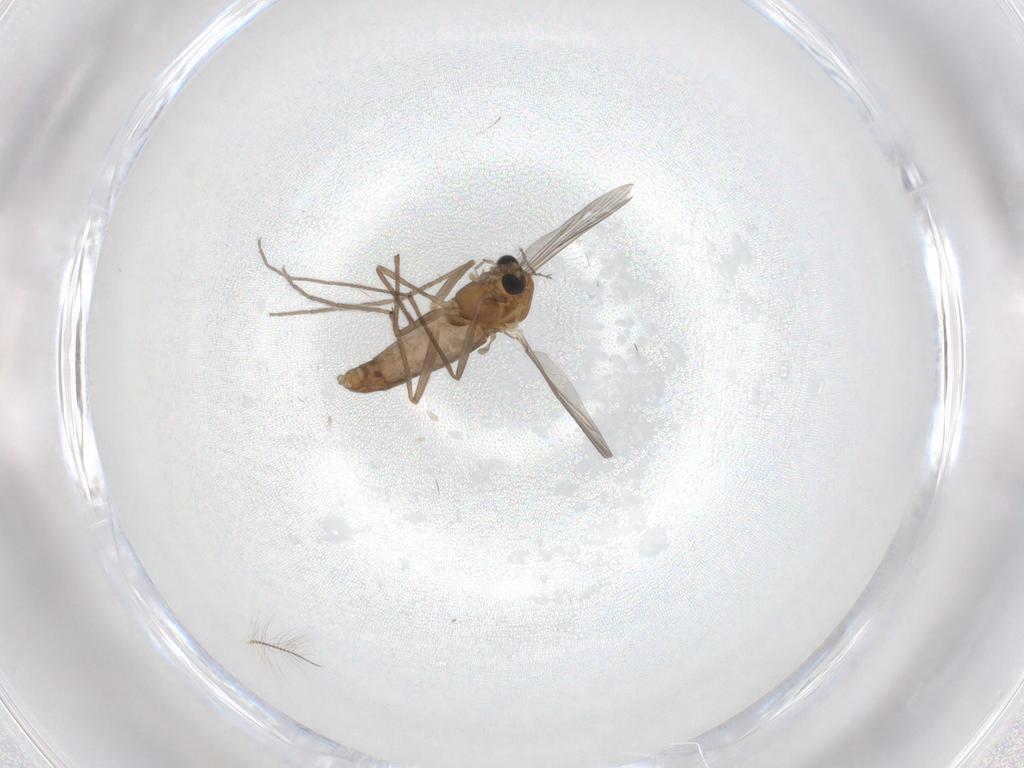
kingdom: Animalia
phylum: Arthropoda
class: Insecta
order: Diptera
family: Chironomidae
